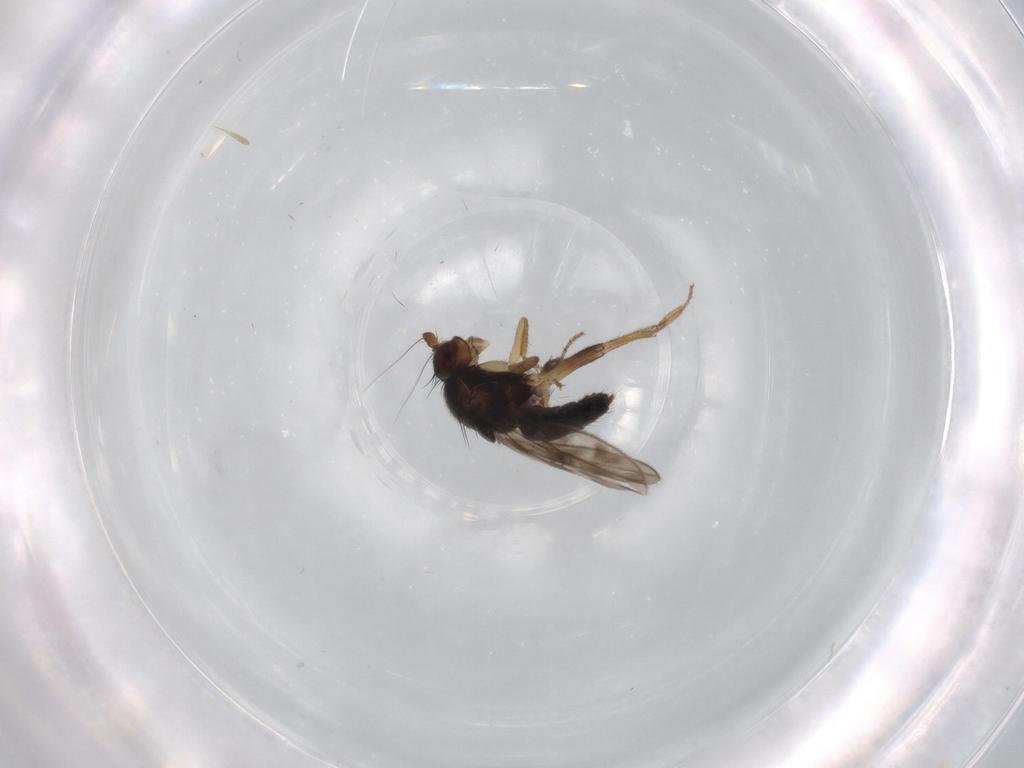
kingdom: Animalia
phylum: Arthropoda
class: Insecta
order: Diptera
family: Sphaeroceridae
